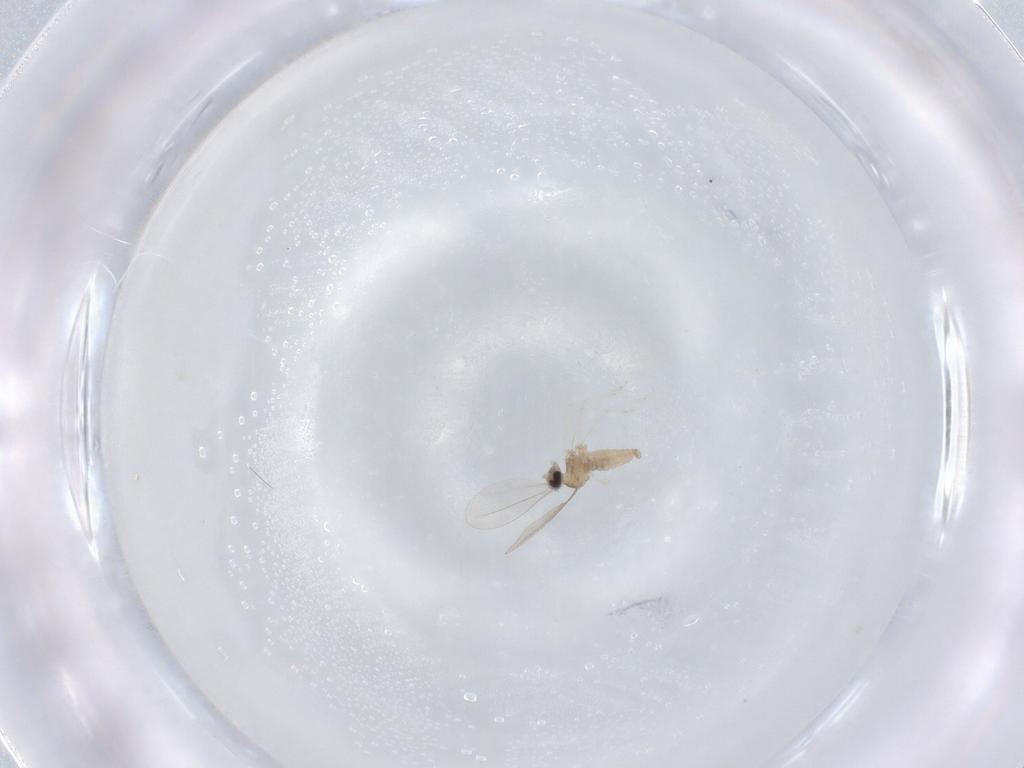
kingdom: Animalia
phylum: Arthropoda
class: Insecta
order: Diptera
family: Cecidomyiidae
